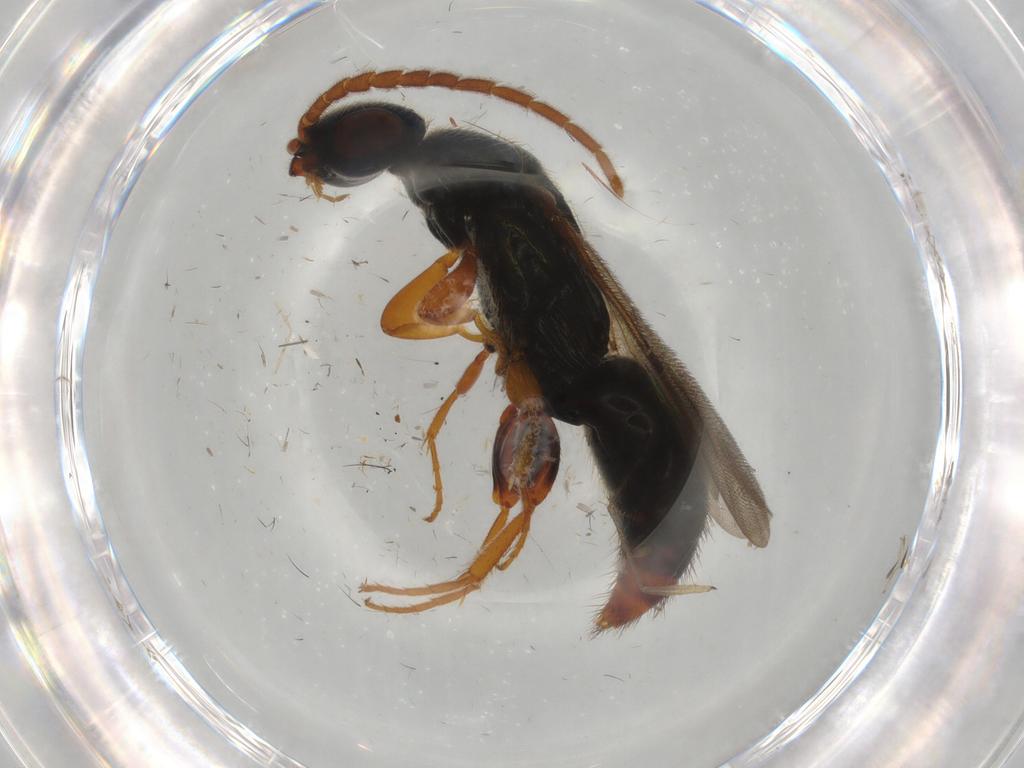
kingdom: Animalia
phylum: Arthropoda
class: Insecta
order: Hymenoptera
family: Bethylidae
